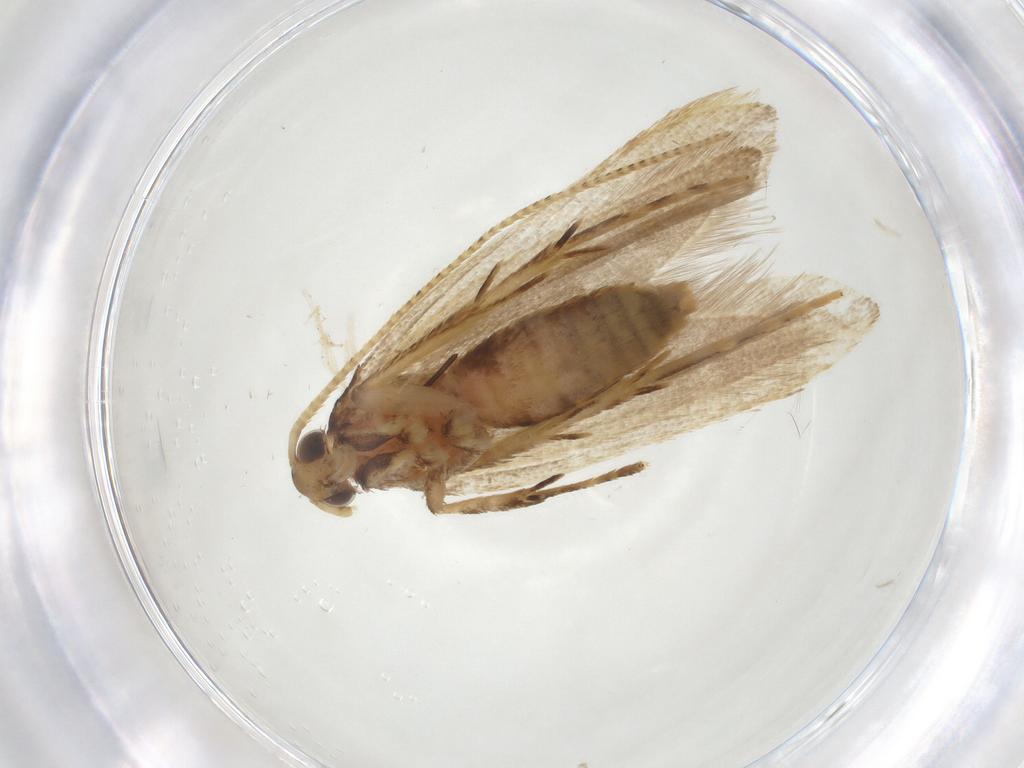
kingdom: Animalia
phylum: Arthropoda
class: Insecta
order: Lepidoptera
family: Lecithoceridae
